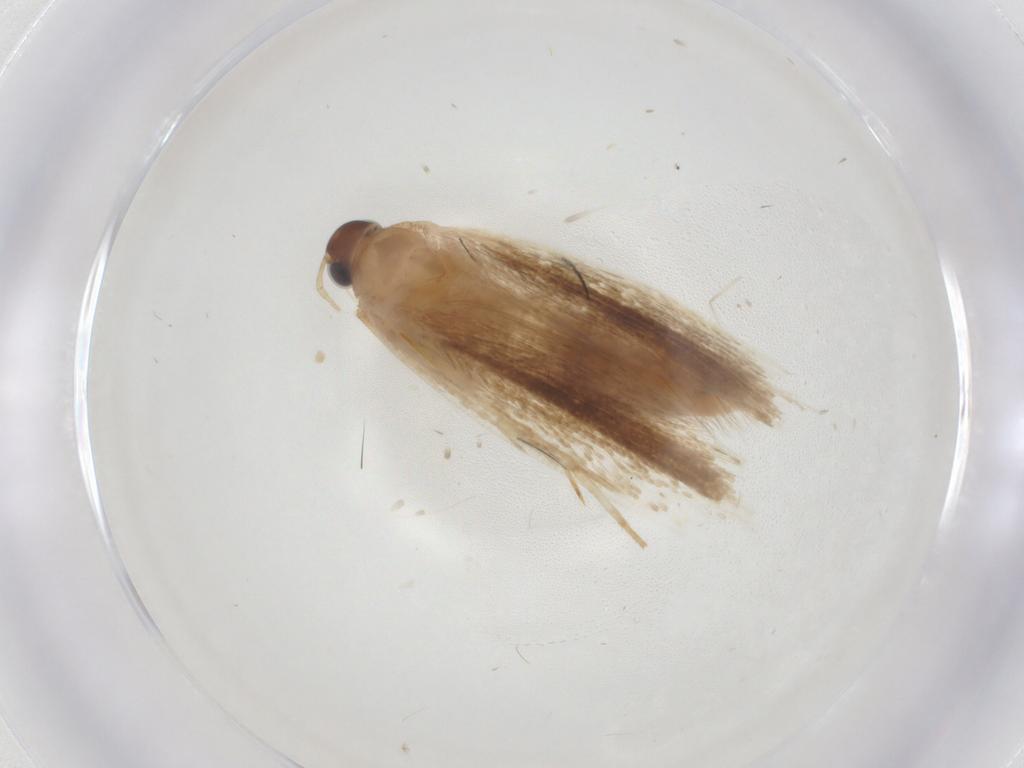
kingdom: Animalia
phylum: Arthropoda
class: Insecta
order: Lepidoptera
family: Gelechiidae
